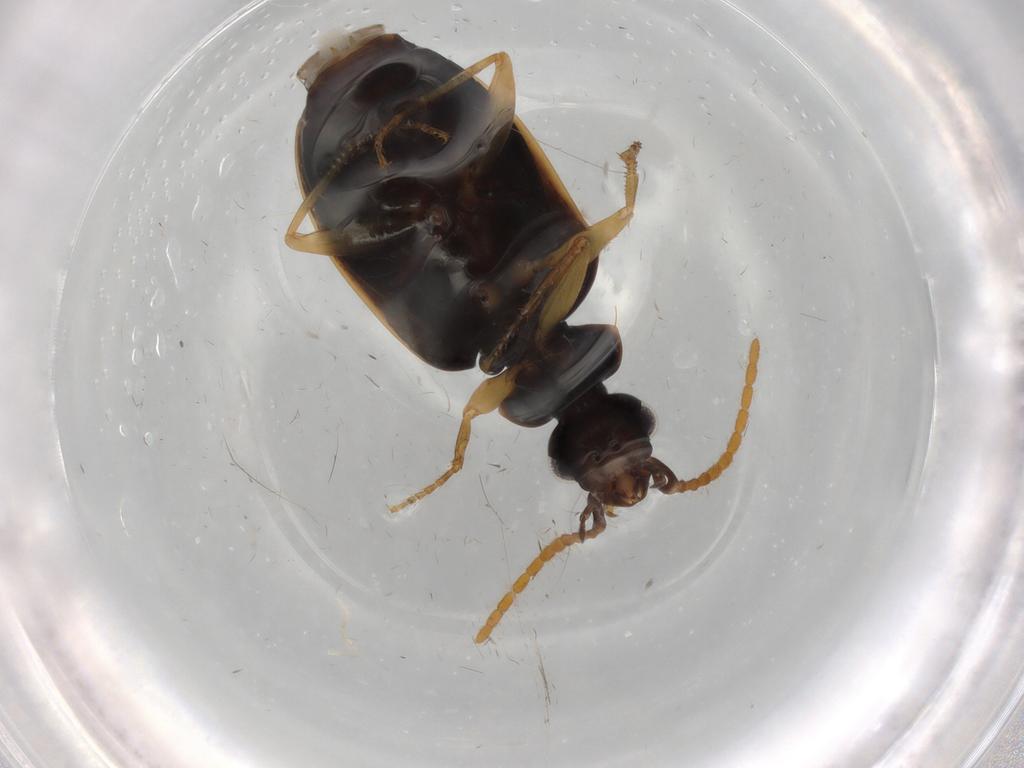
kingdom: Animalia
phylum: Arthropoda
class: Insecta
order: Coleoptera
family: Carabidae
